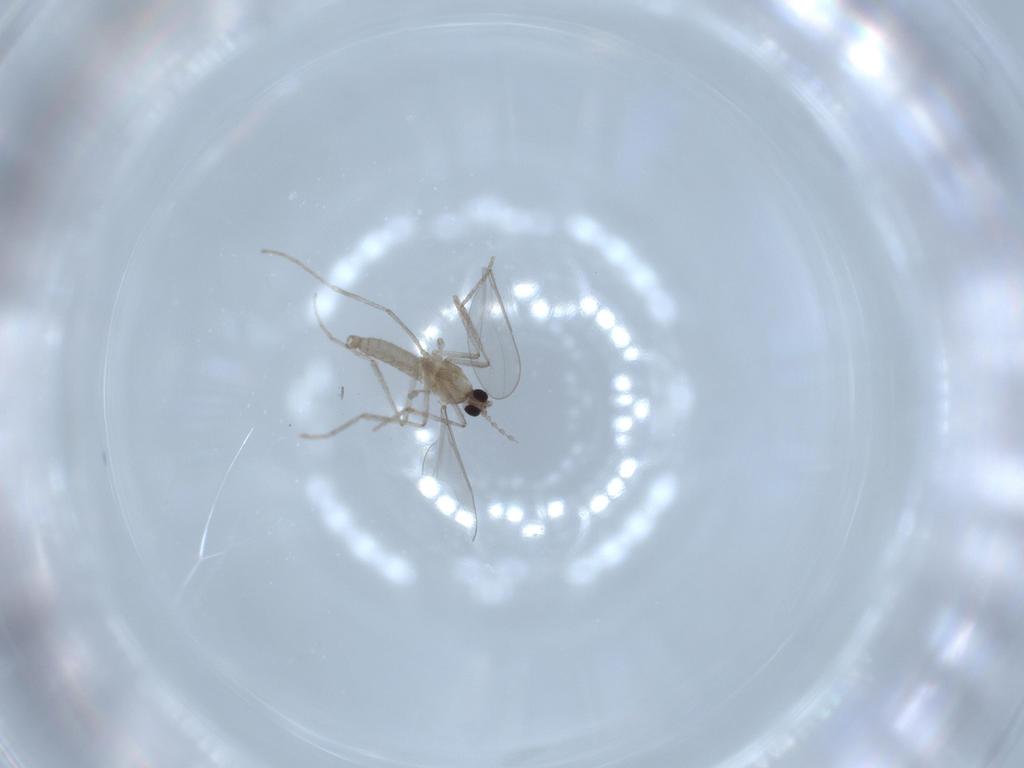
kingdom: Animalia
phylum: Arthropoda
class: Insecta
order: Diptera
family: Cecidomyiidae
